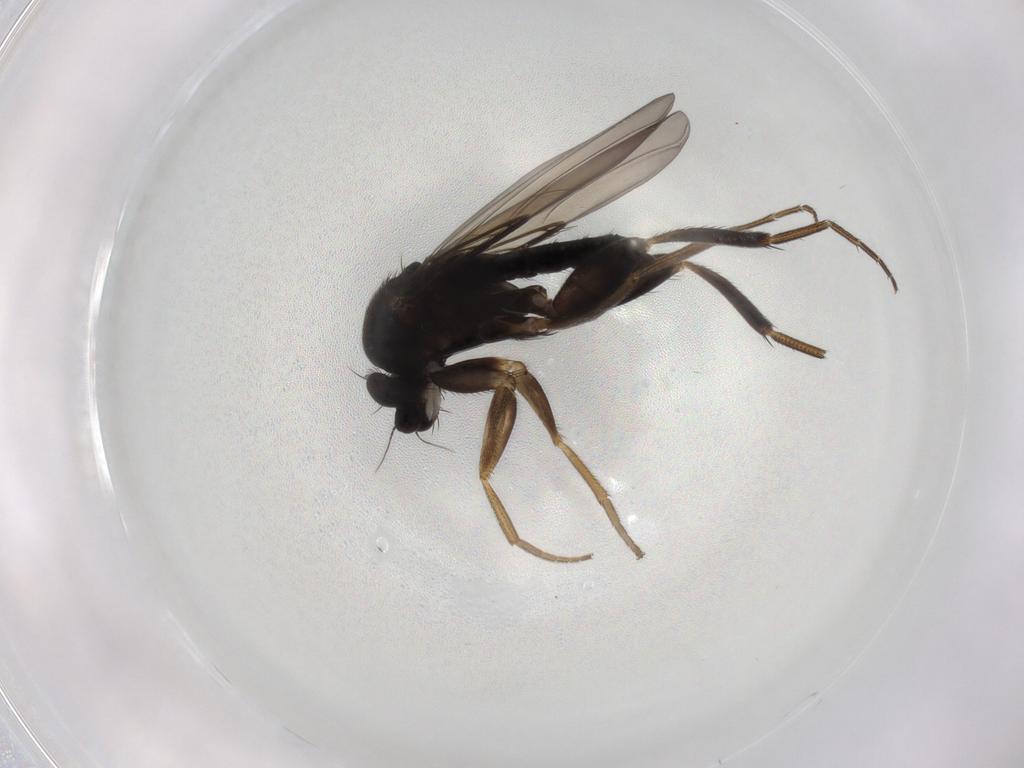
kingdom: Animalia
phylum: Arthropoda
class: Insecta
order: Diptera
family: Phoridae
